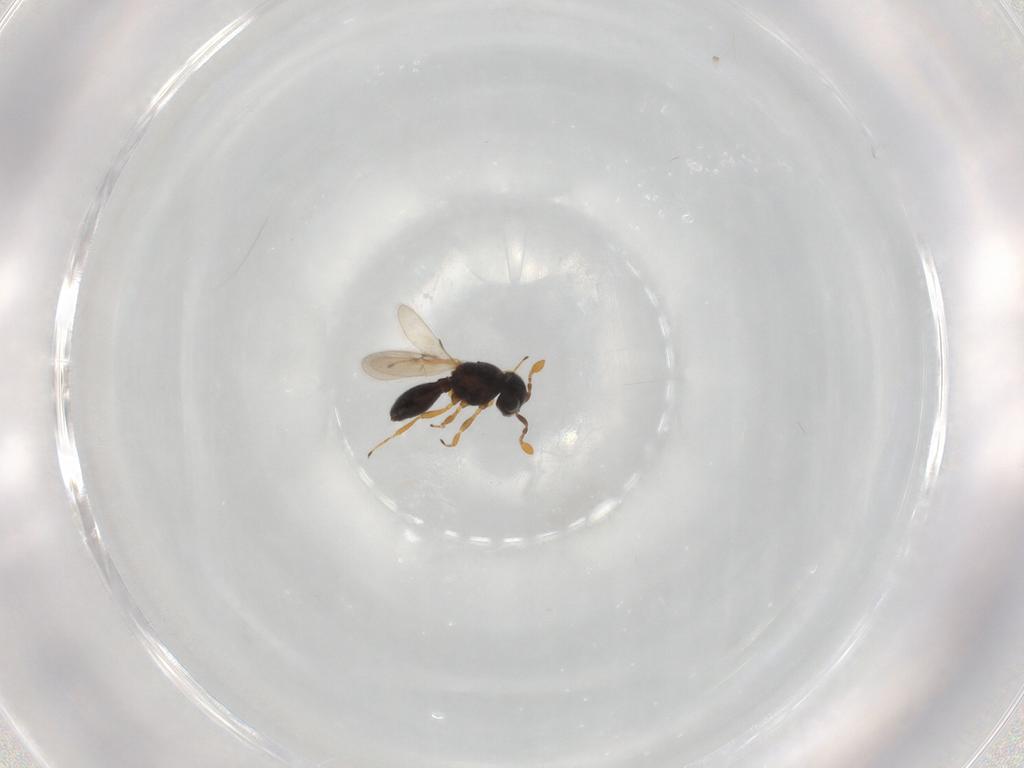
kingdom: Animalia
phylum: Arthropoda
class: Insecta
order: Hymenoptera
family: Scelionidae
